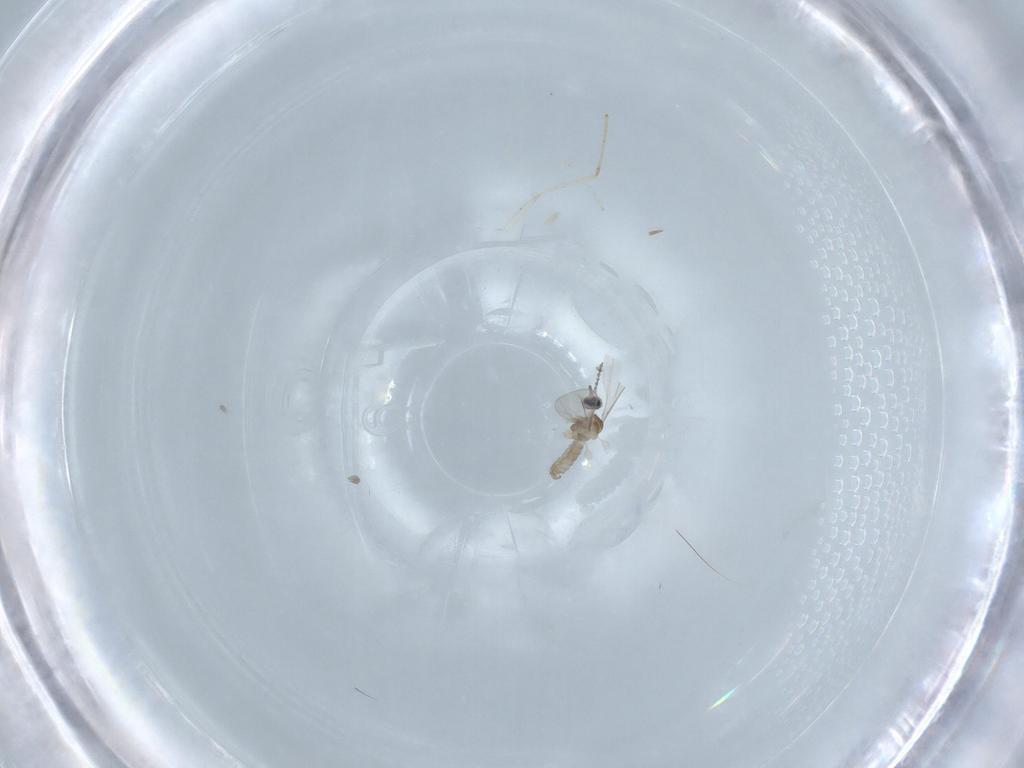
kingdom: Animalia
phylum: Arthropoda
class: Insecta
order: Diptera
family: Cecidomyiidae
